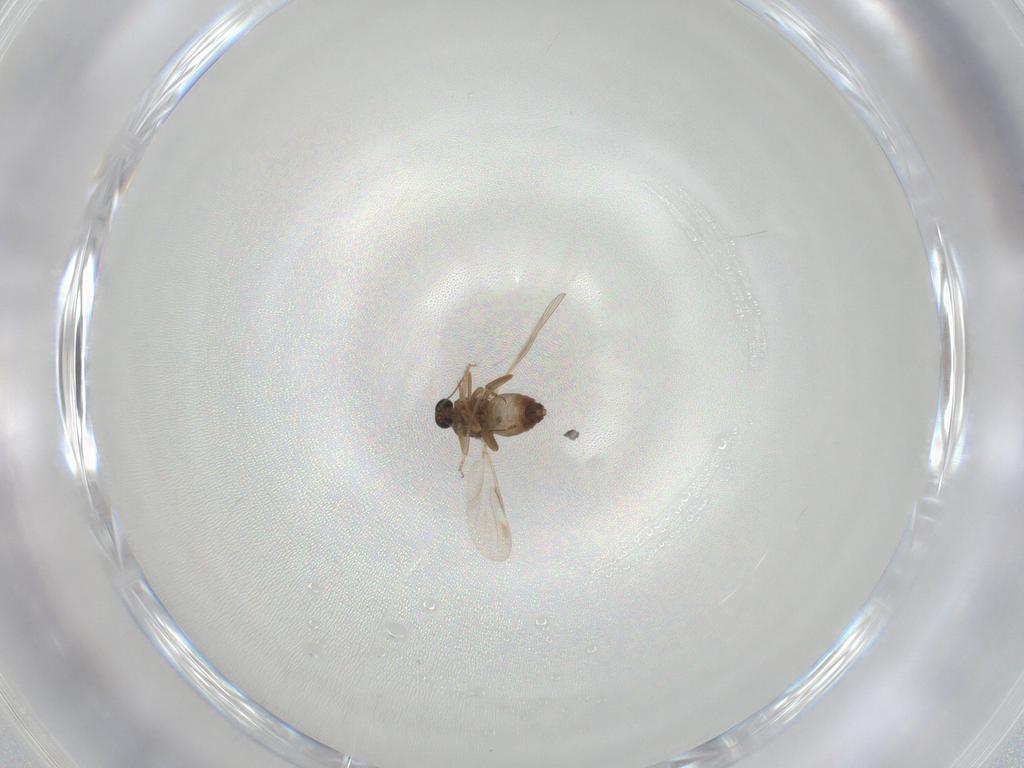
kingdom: Animalia
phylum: Arthropoda
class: Insecta
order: Diptera
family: Ceratopogonidae
